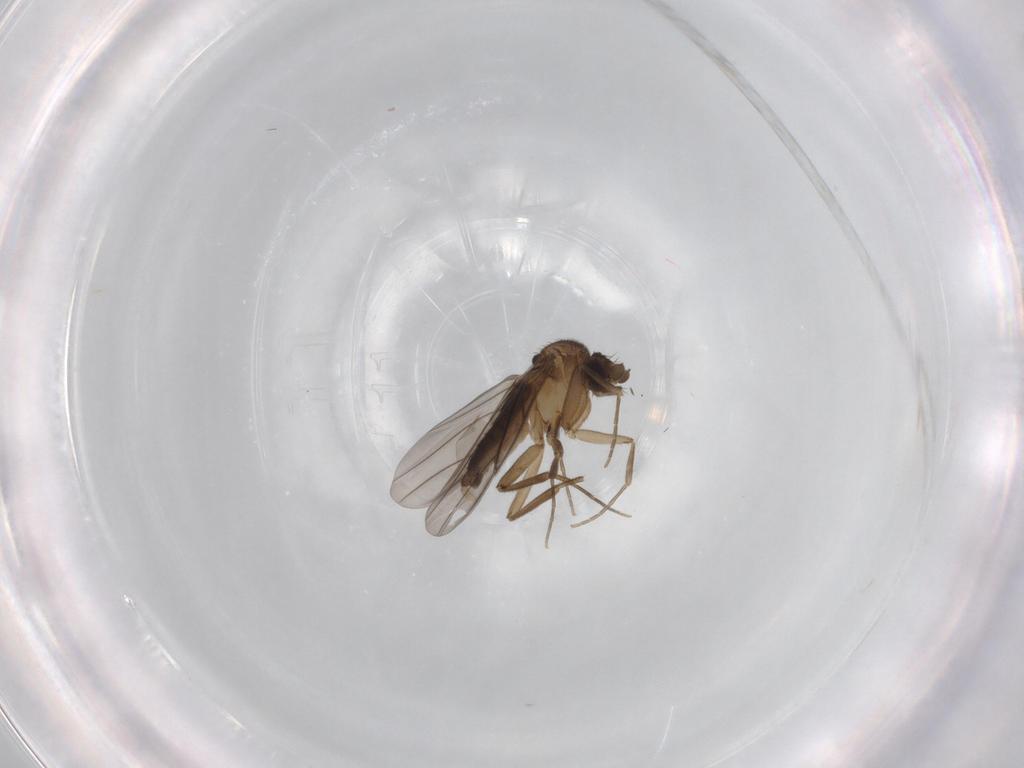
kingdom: Animalia
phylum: Arthropoda
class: Insecta
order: Diptera
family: Phoridae
